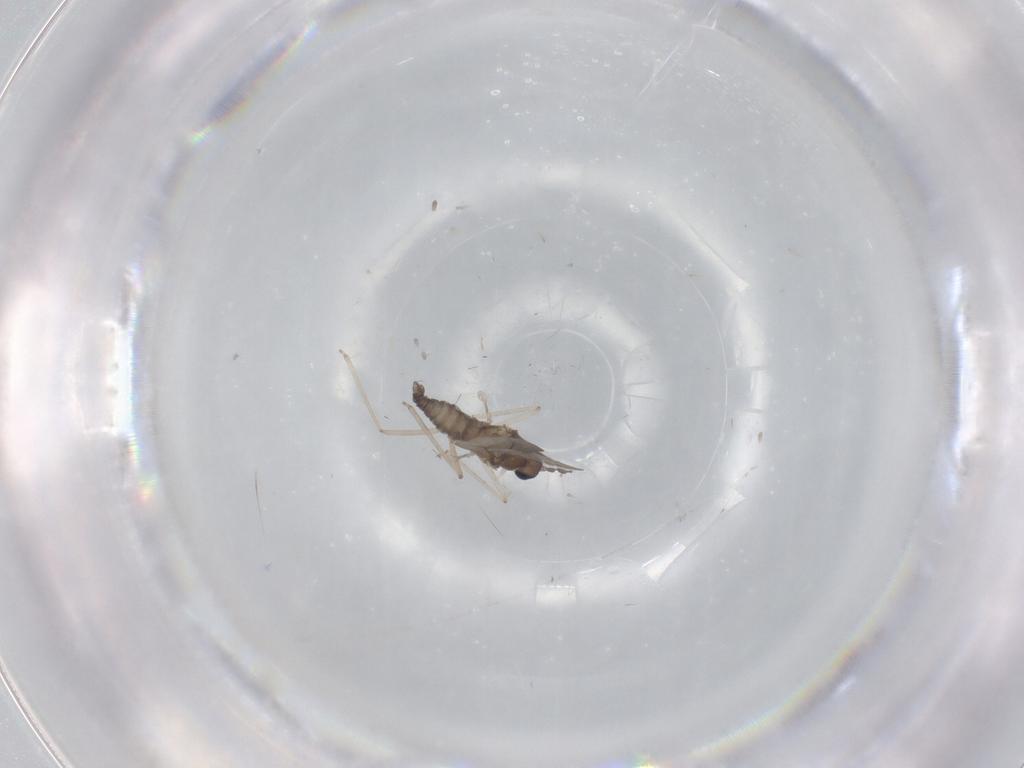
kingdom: Animalia
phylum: Arthropoda
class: Insecta
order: Diptera
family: Cecidomyiidae
